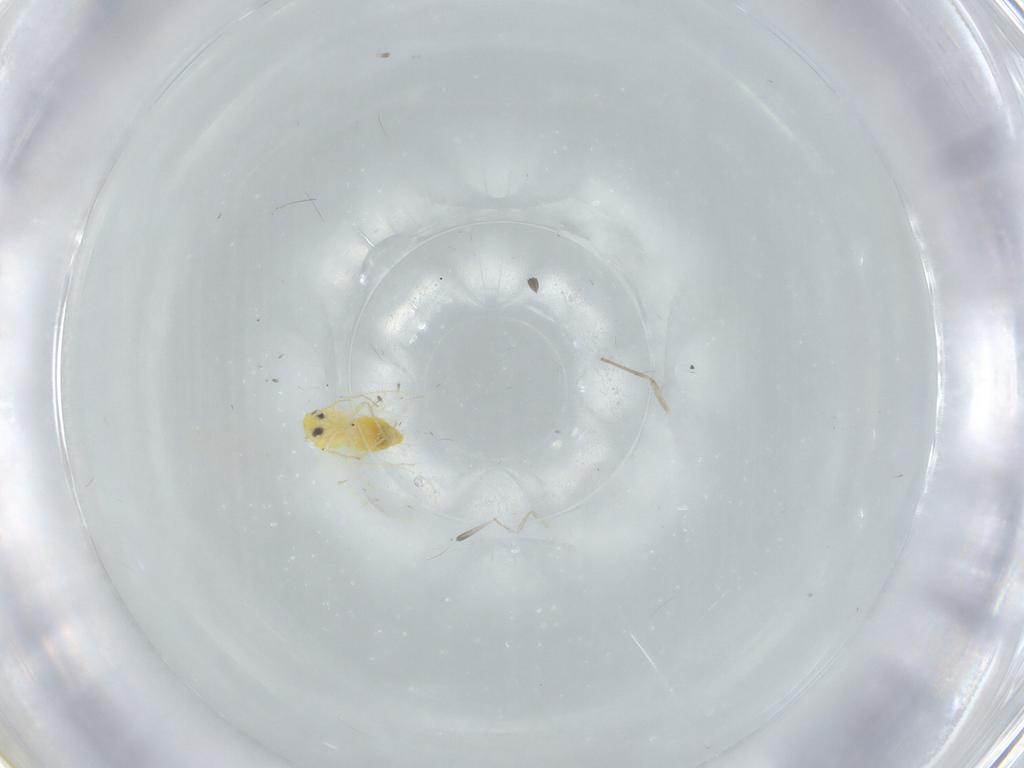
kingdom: Animalia
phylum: Arthropoda
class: Insecta
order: Hemiptera
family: Aleyrodidae
